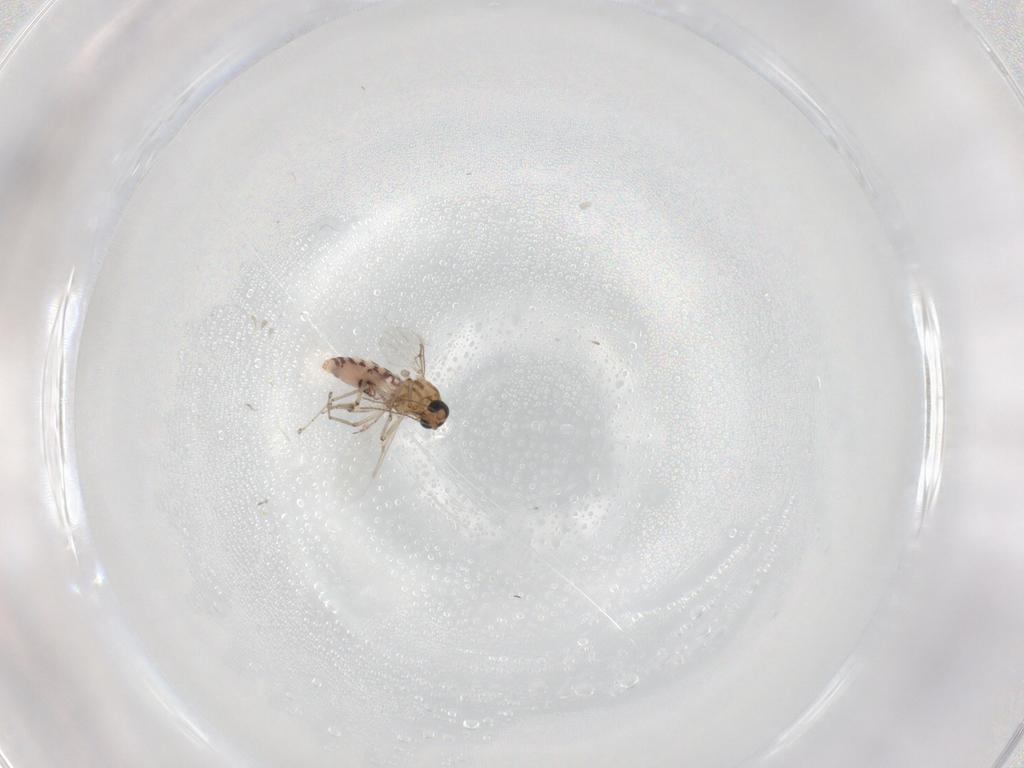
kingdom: Animalia
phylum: Arthropoda
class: Insecta
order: Diptera
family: Ceratopogonidae
